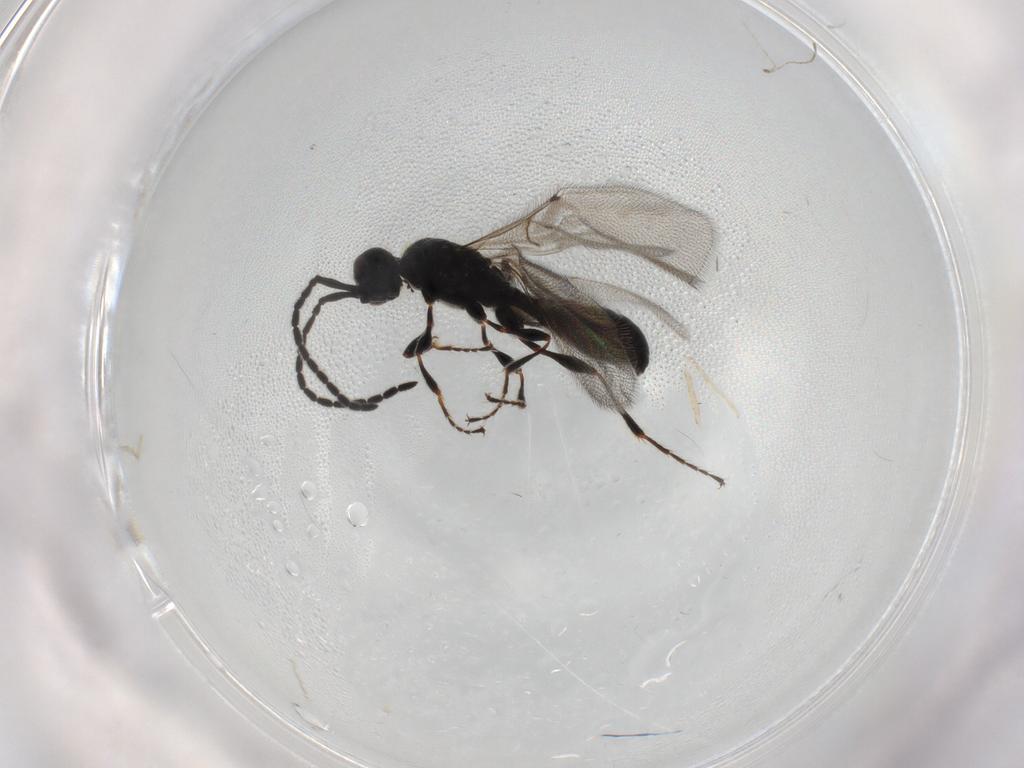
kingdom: Animalia
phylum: Arthropoda
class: Insecta
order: Hymenoptera
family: Diapriidae
